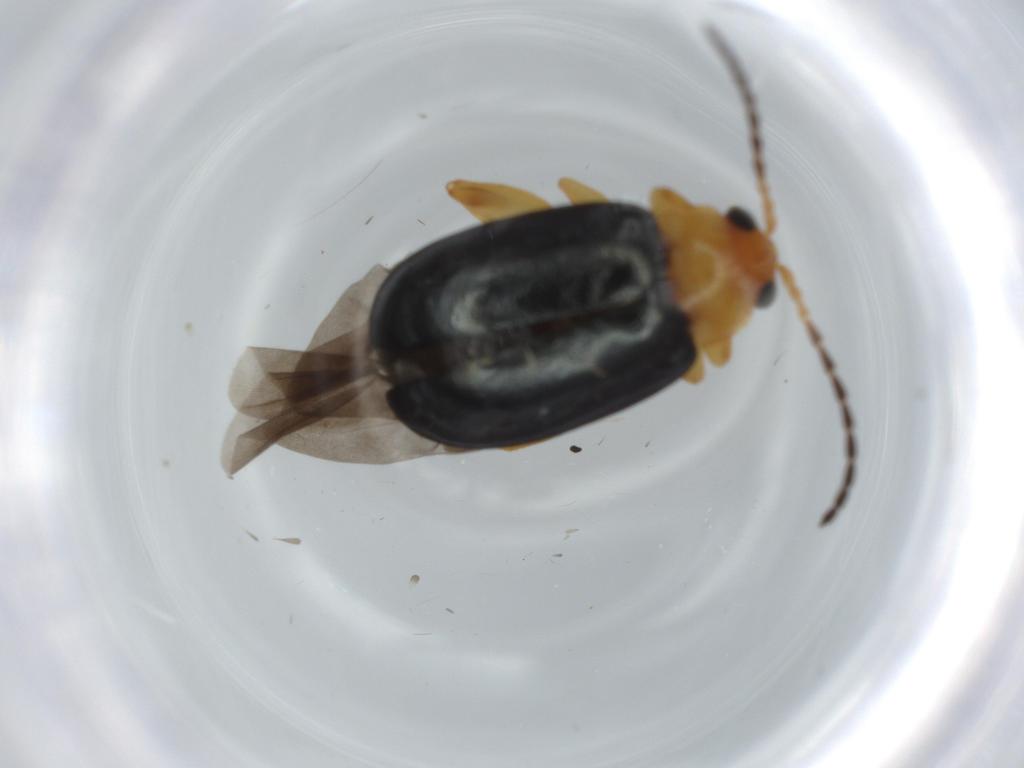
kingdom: Animalia
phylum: Arthropoda
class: Insecta
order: Coleoptera
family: Chrysomelidae
